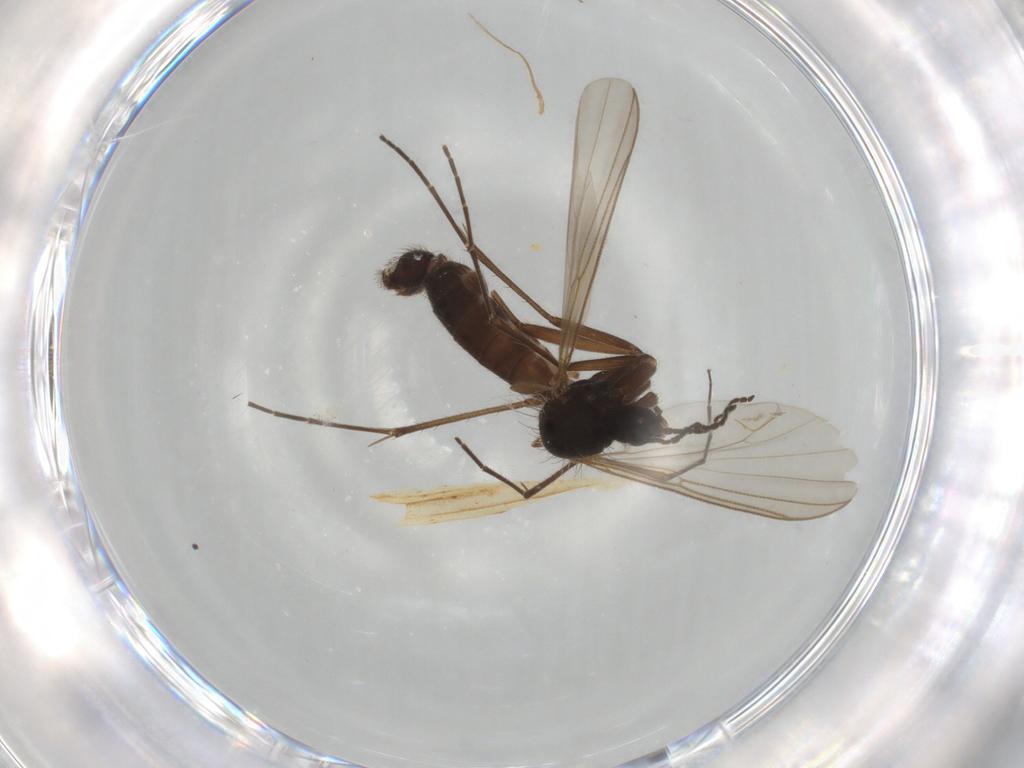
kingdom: Animalia
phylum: Arthropoda
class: Insecta
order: Diptera
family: Mycetophilidae
